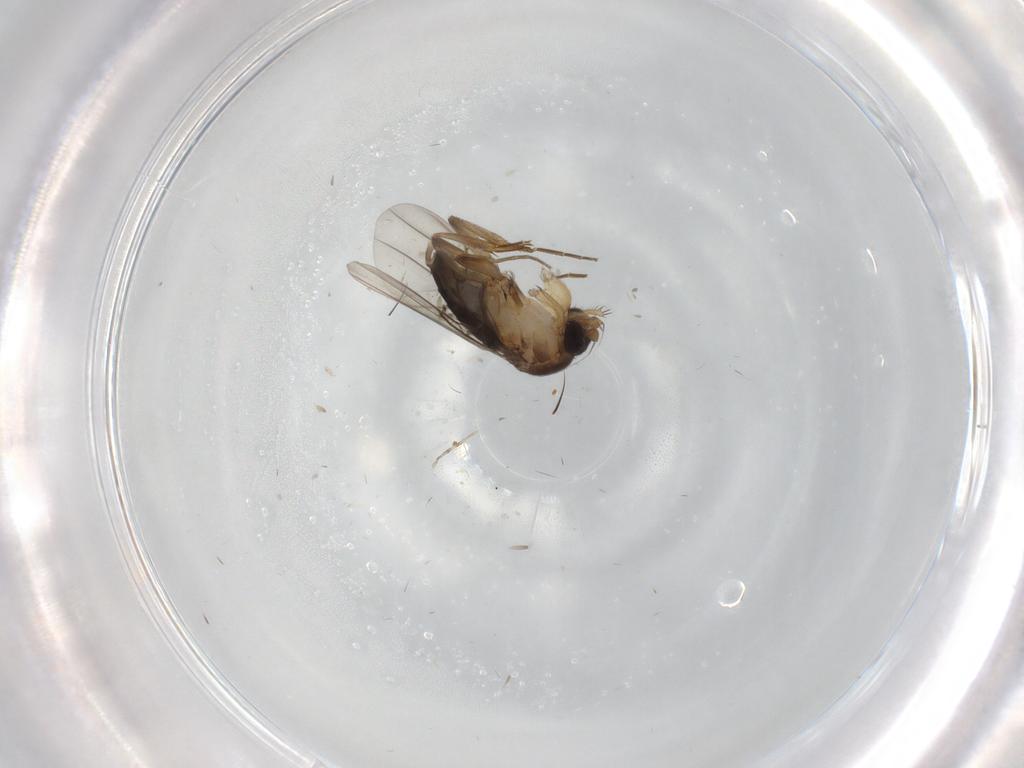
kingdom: Animalia
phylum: Arthropoda
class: Insecta
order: Diptera
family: Phoridae
